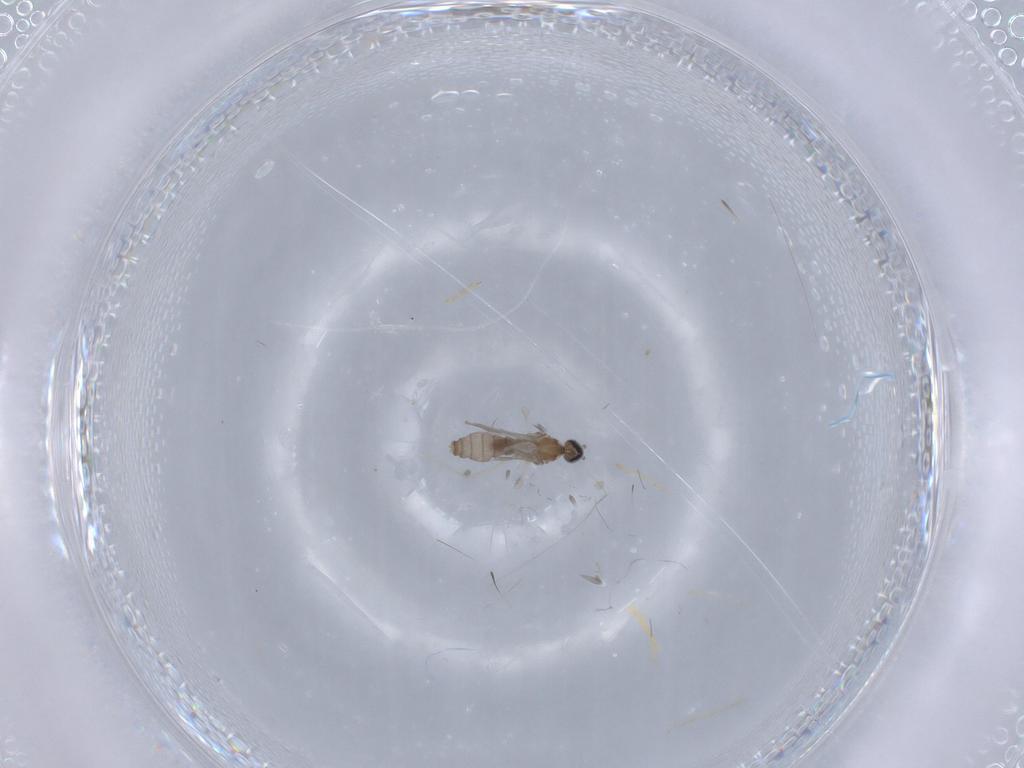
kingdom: Animalia
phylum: Arthropoda
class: Insecta
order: Diptera
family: Cecidomyiidae
